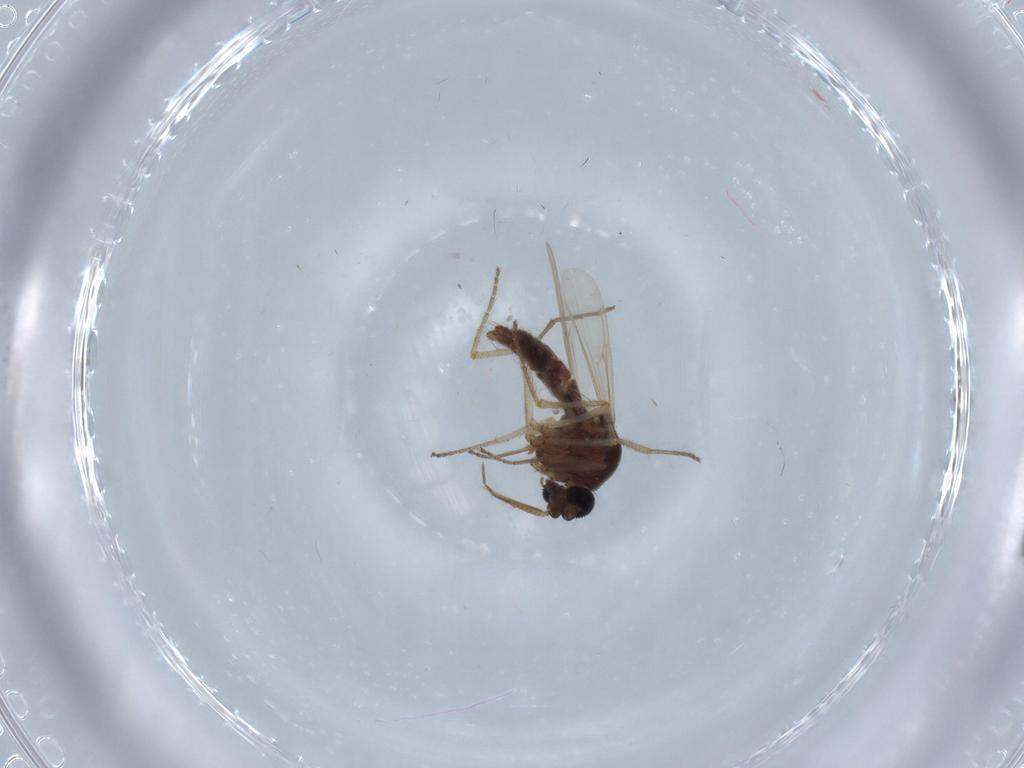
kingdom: Animalia
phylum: Arthropoda
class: Insecta
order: Diptera
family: Ceratopogonidae
